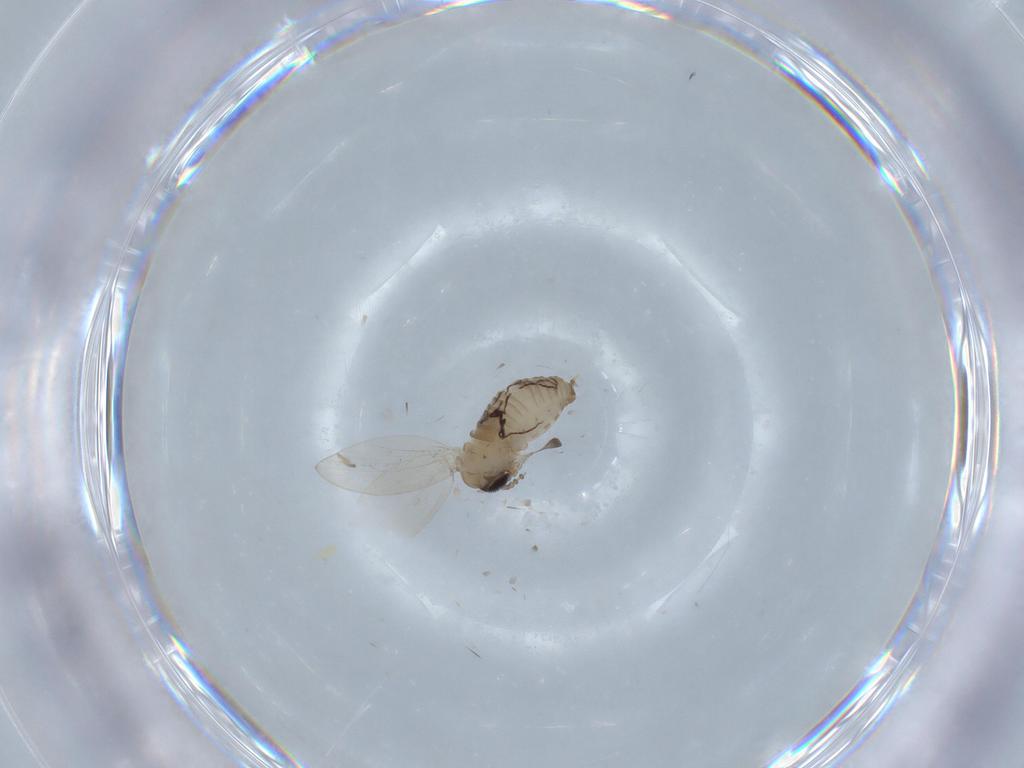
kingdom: Animalia
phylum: Arthropoda
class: Insecta
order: Diptera
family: Psychodidae
